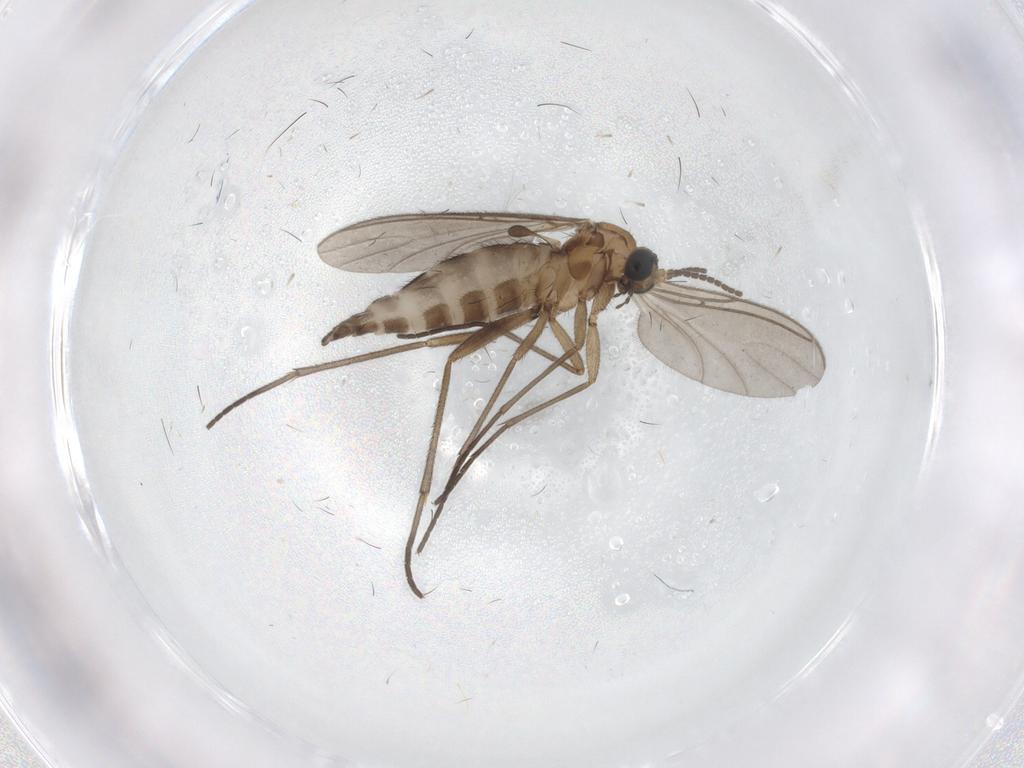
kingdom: Animalia
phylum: Arthropoda
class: Insecta
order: Diptera
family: Sciaridae
